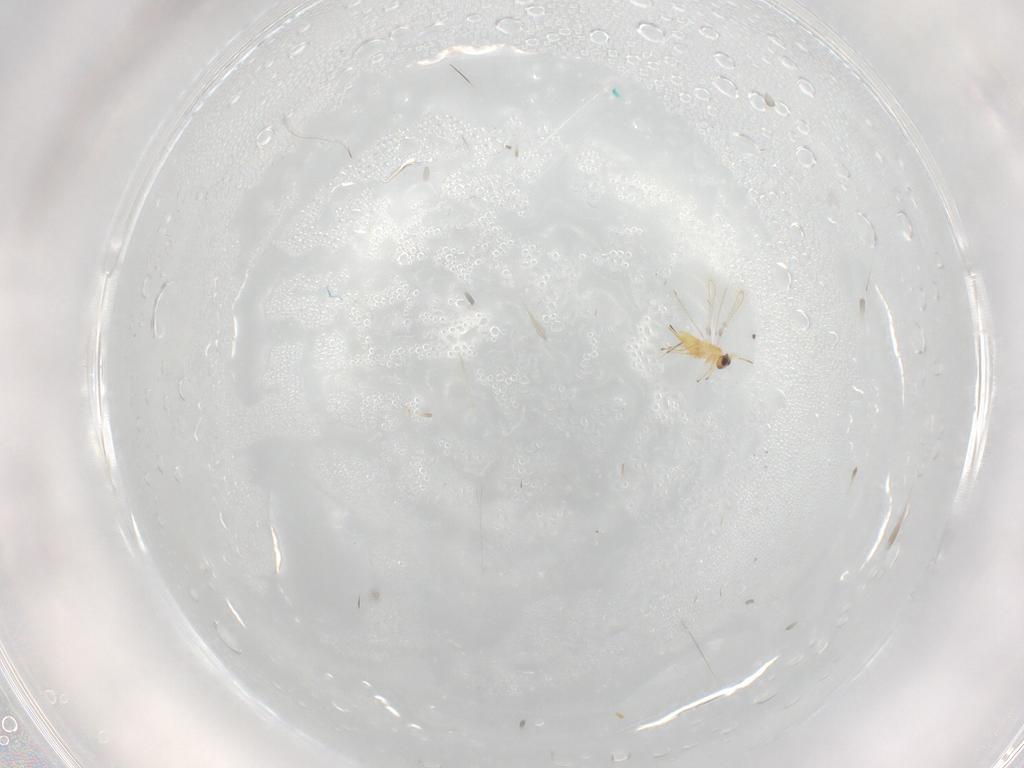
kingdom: Animalia
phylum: Arthropoda
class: Insecta
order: Hymenoptera
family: Mymaridae
